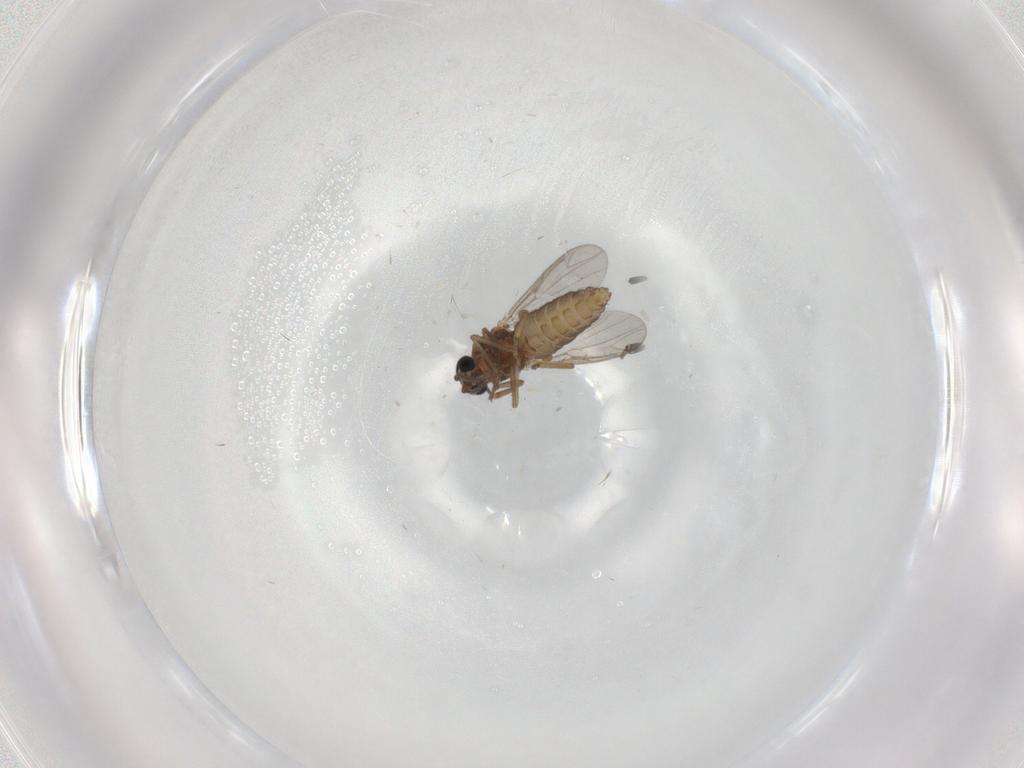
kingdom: Animalia
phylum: Arthropoda
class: Insecta
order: Diptera
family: Ceratopogonidae
